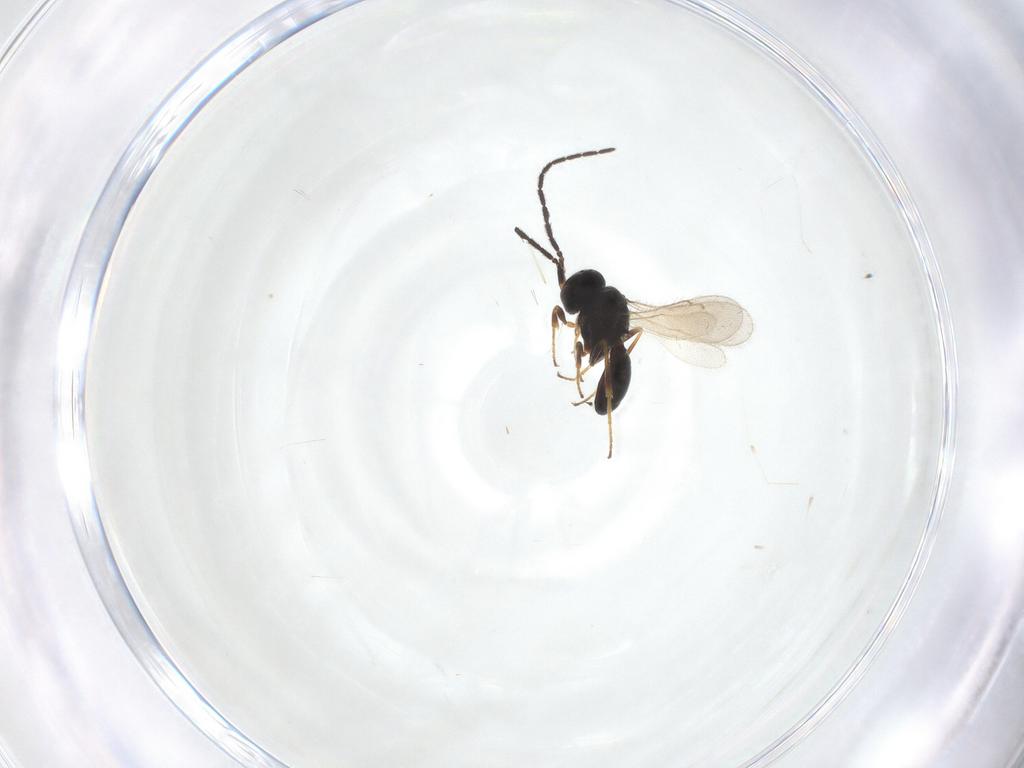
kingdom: Animalia
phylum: Arthropoda
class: Insecta
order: Hymenoptera
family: Scelionidae
